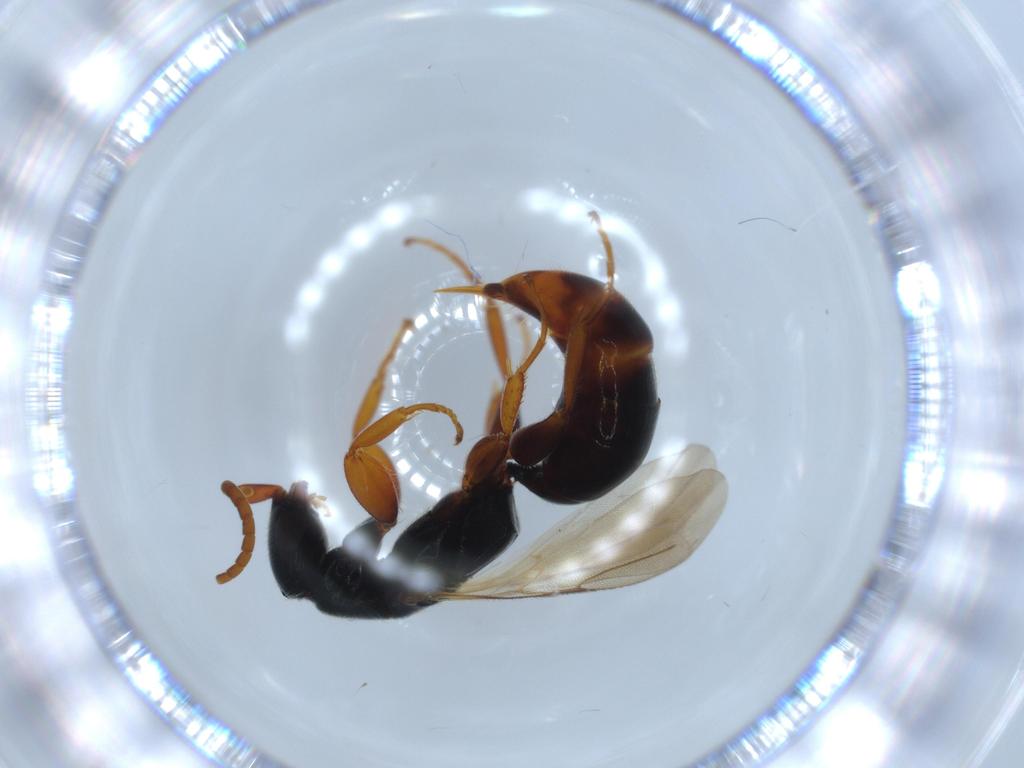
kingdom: Animalia
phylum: Arthropoda
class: Insecta
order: Hymenoptera
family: Bethylidae
